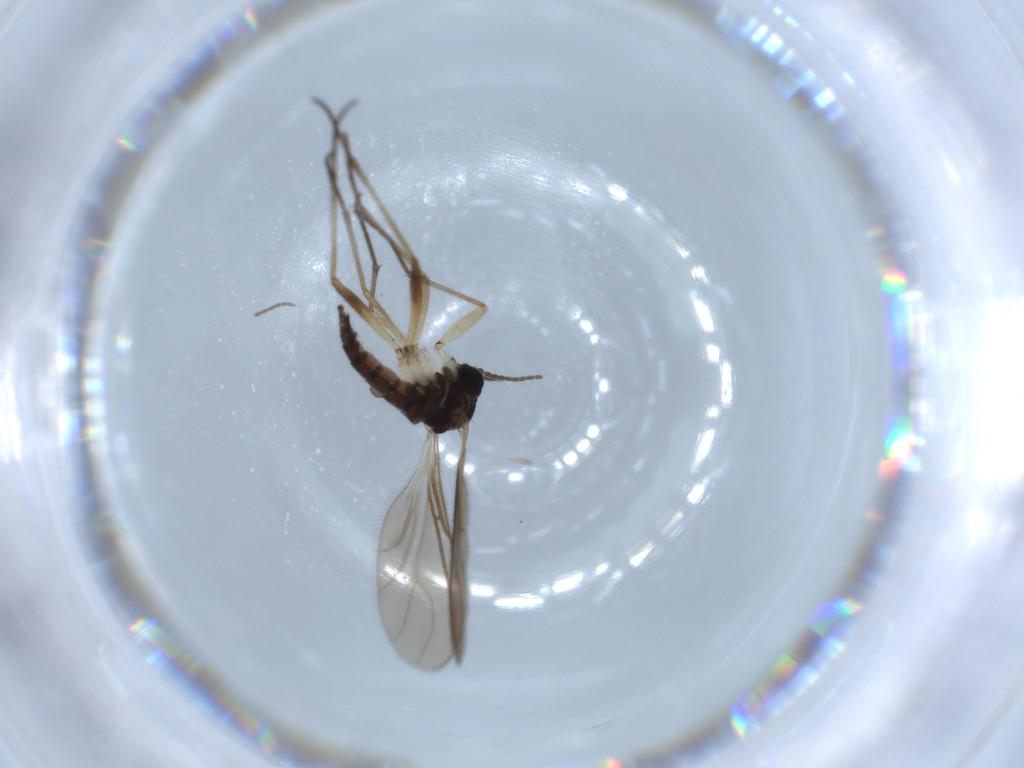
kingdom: Animalia
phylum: Arthropoda
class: Insecta
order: Diptera
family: Sciaridae
